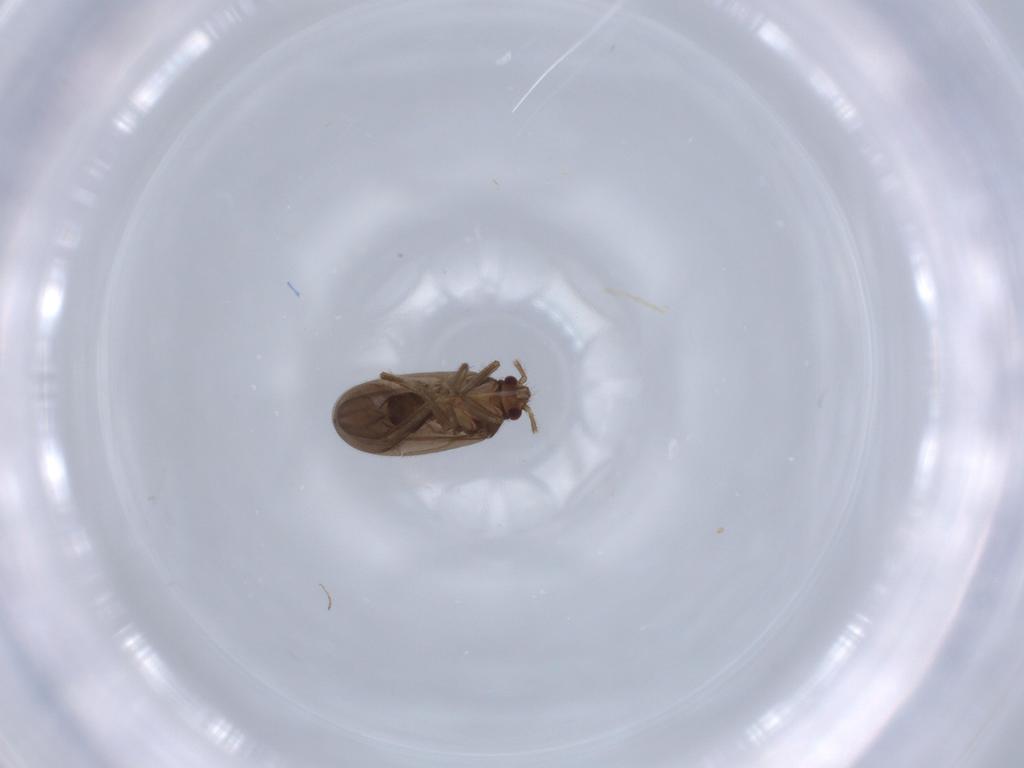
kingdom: Animalia
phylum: Arthropoda
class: Insecta
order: Hemiptera
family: Ceratocombidae
